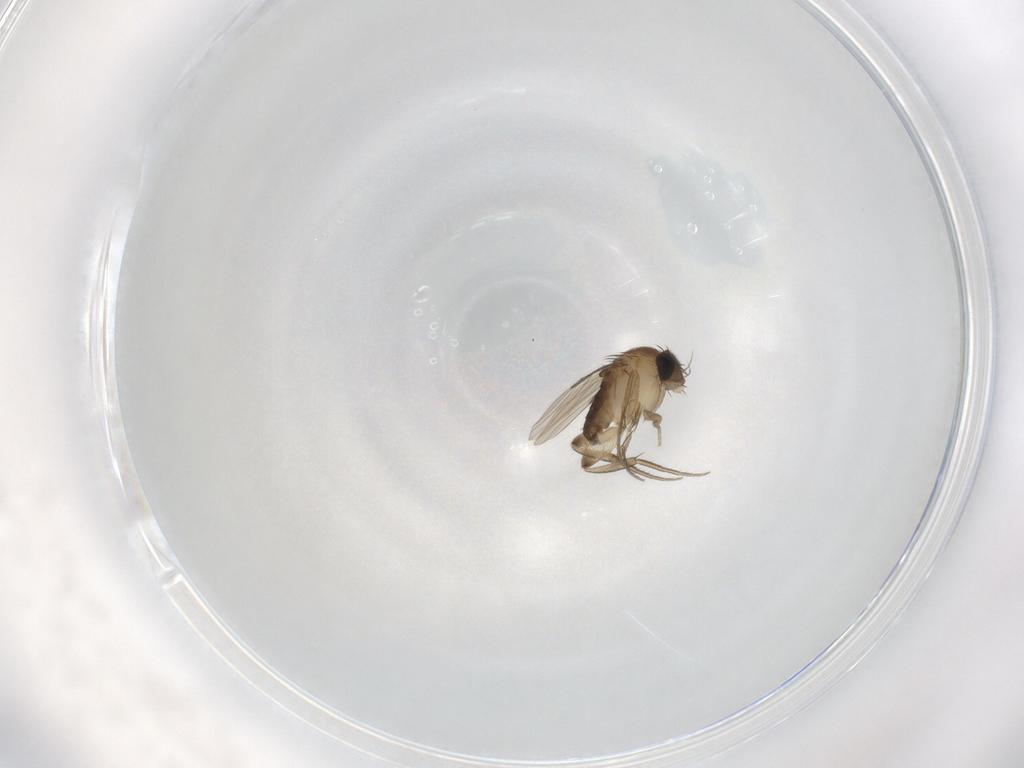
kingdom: Animalia
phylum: Arthropoda
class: Insecta
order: Diptera
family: Phoridae
